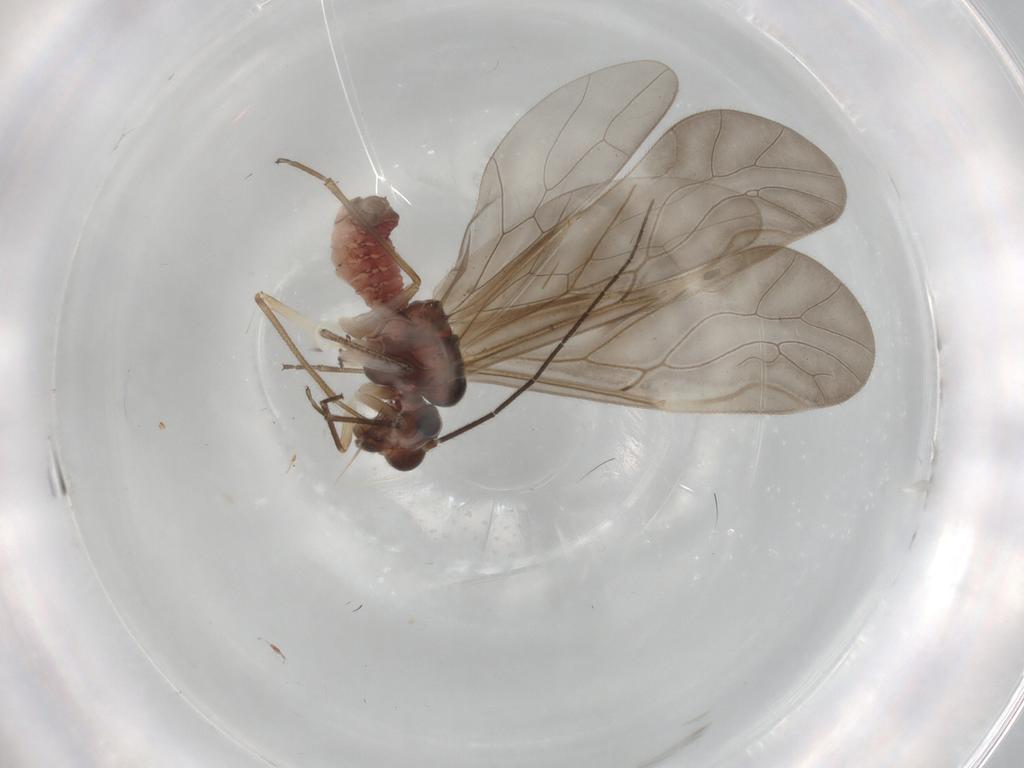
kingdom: Animalia
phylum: Arthropoda
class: Insecta
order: Psocodea
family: Caeciliusidae
